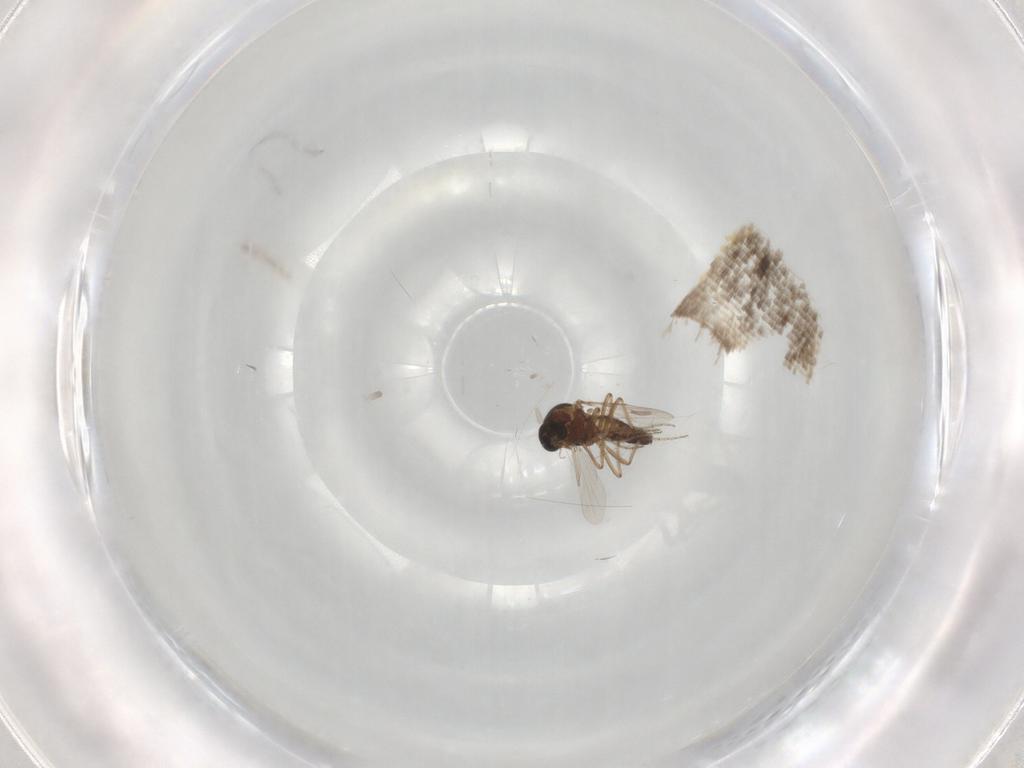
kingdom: Animalia
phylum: Arthropoda
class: Insecta
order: Diptera
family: Ceratopogonidae
